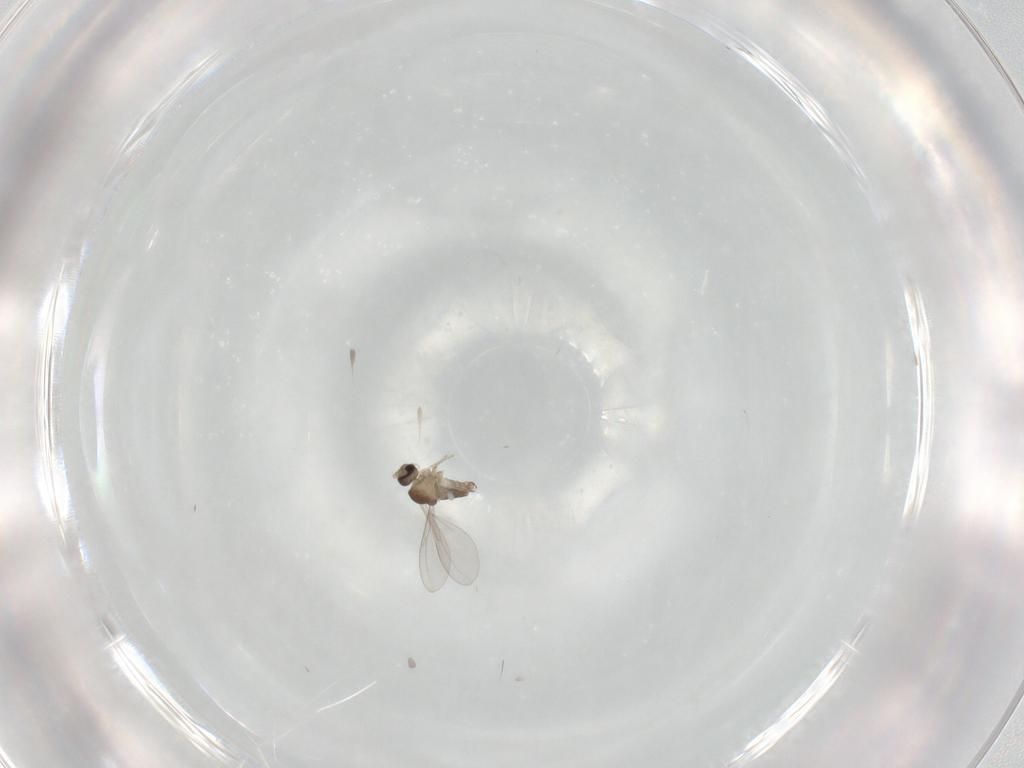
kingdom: Animalia
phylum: Arthropoda
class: Insecta
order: Diptera
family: Cecidomyiidae
